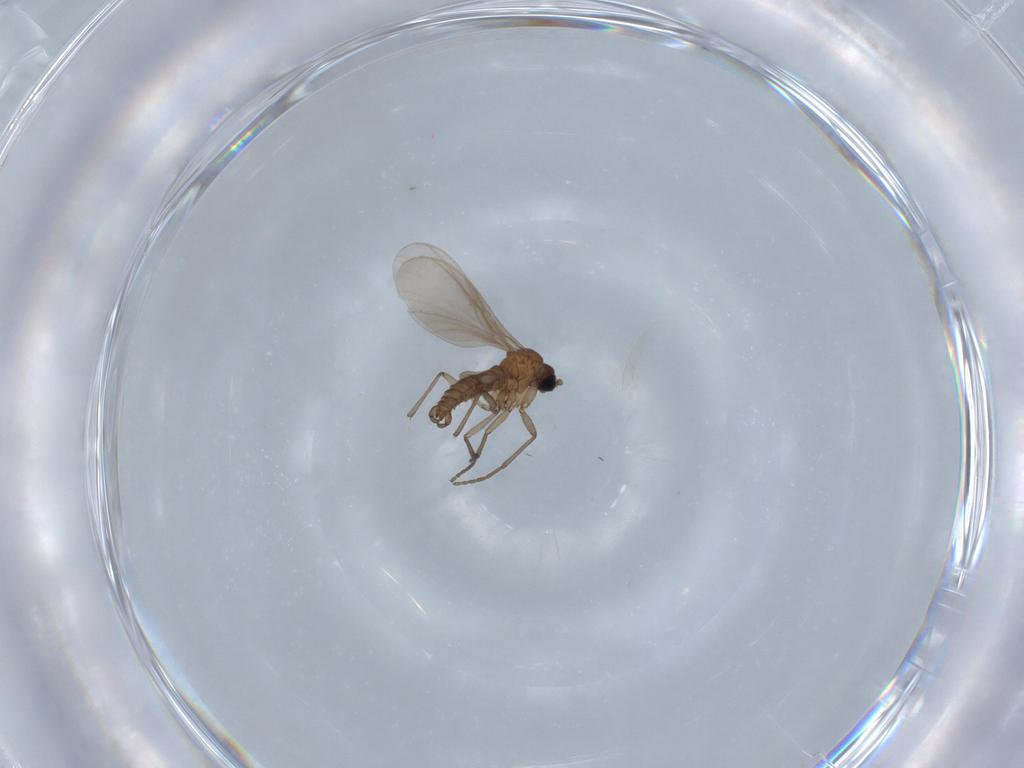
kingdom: Animalia
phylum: Arthropoda
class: Insecta
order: Diptera
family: Sciaridae
